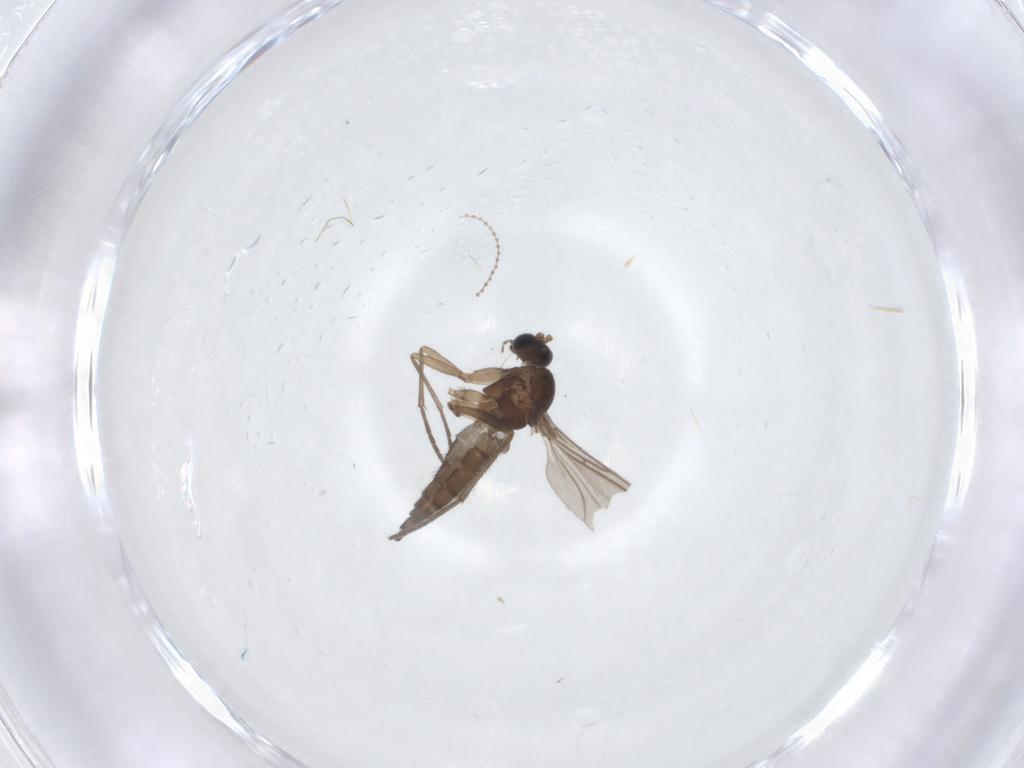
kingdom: Animalia
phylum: Arthropoda
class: Insecta
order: Diptera
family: Sciaridae
